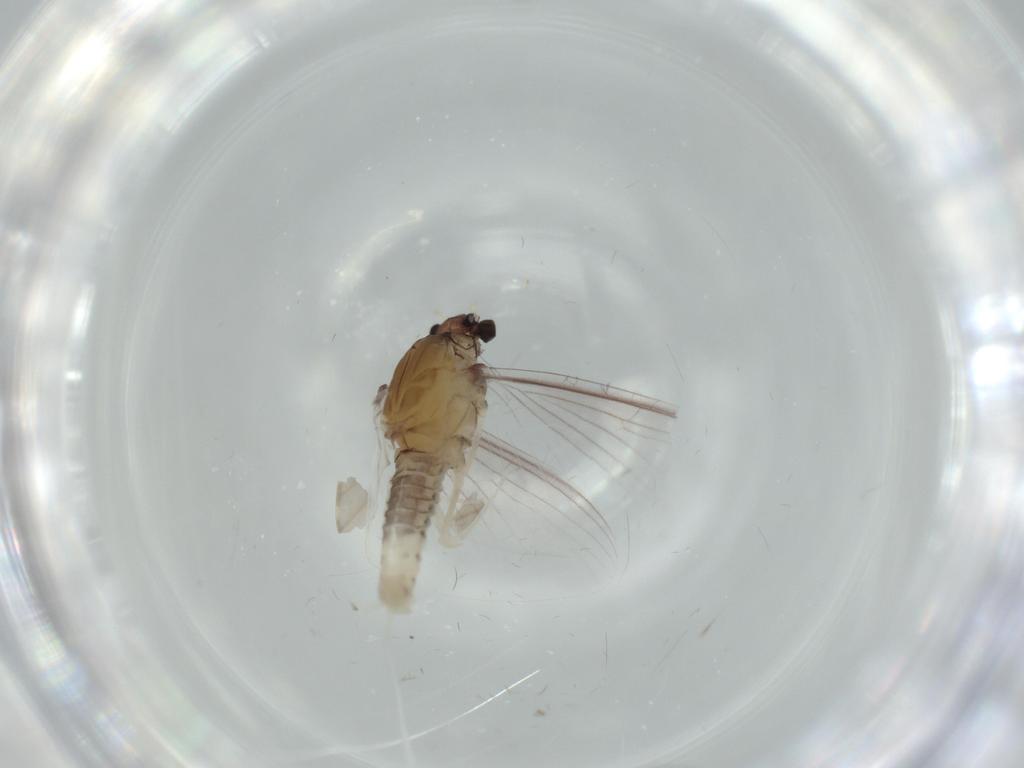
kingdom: Animalia
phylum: Arthropoda
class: Insecta
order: Ephemeroptera
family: Caenidae
